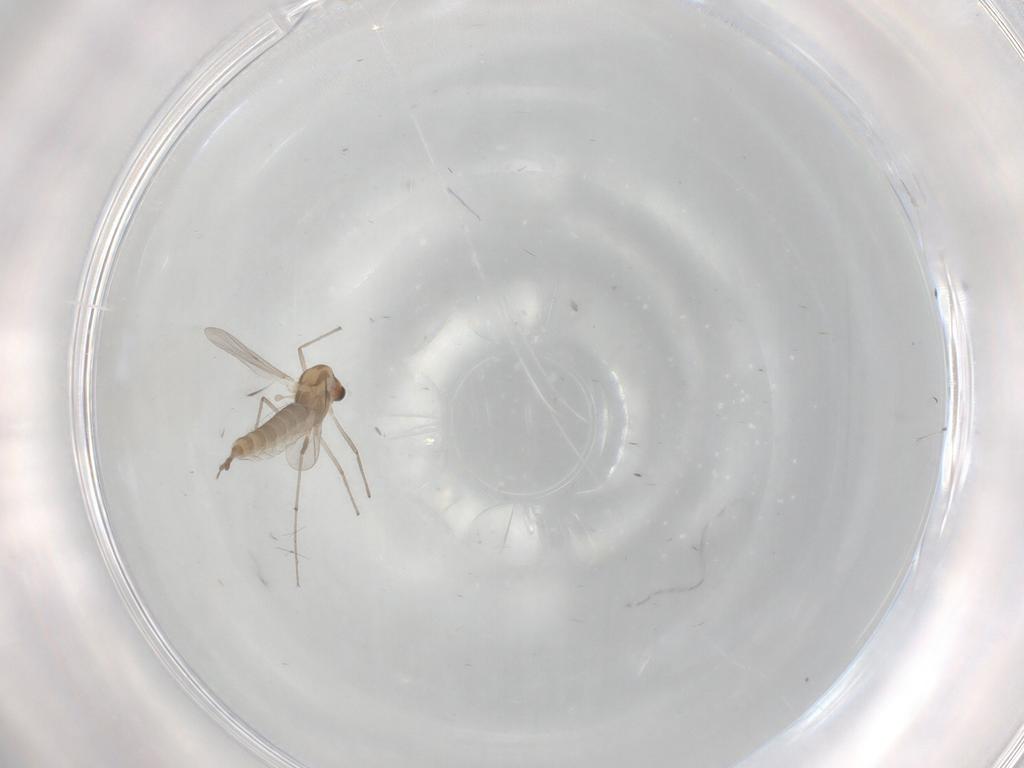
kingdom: Animalia
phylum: Arthropoda
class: Insecta
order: Diptera
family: Chironomidae
